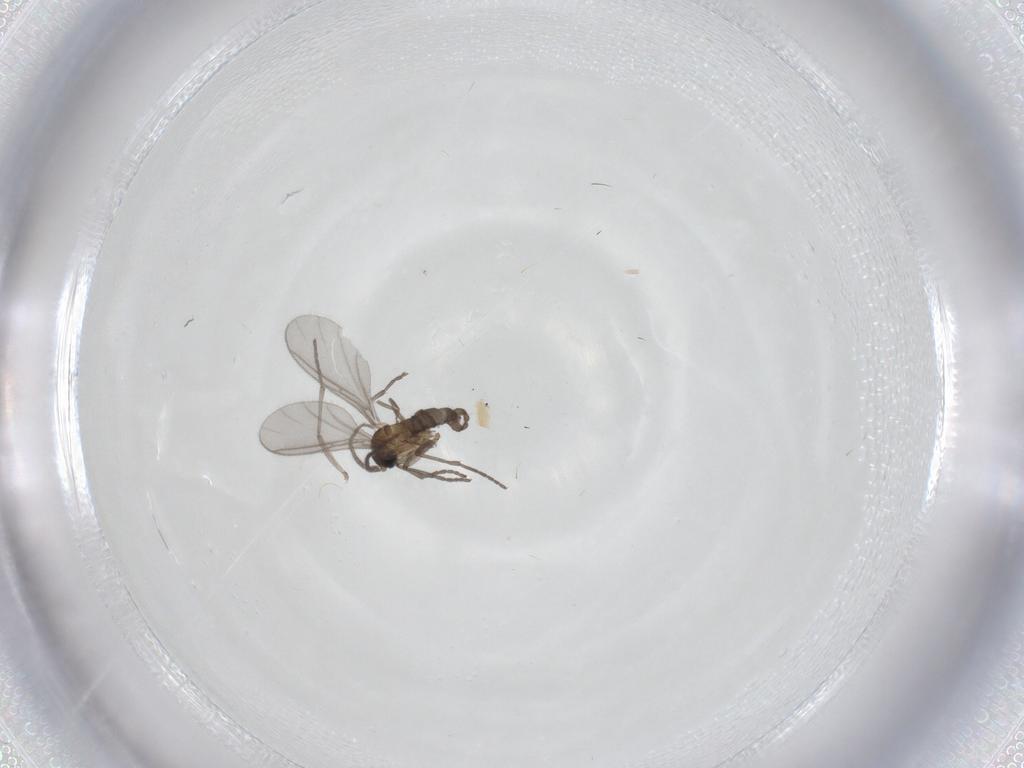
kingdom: Animalia
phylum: Arthropoda
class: Insecta
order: Diptera
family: Sciaridae
